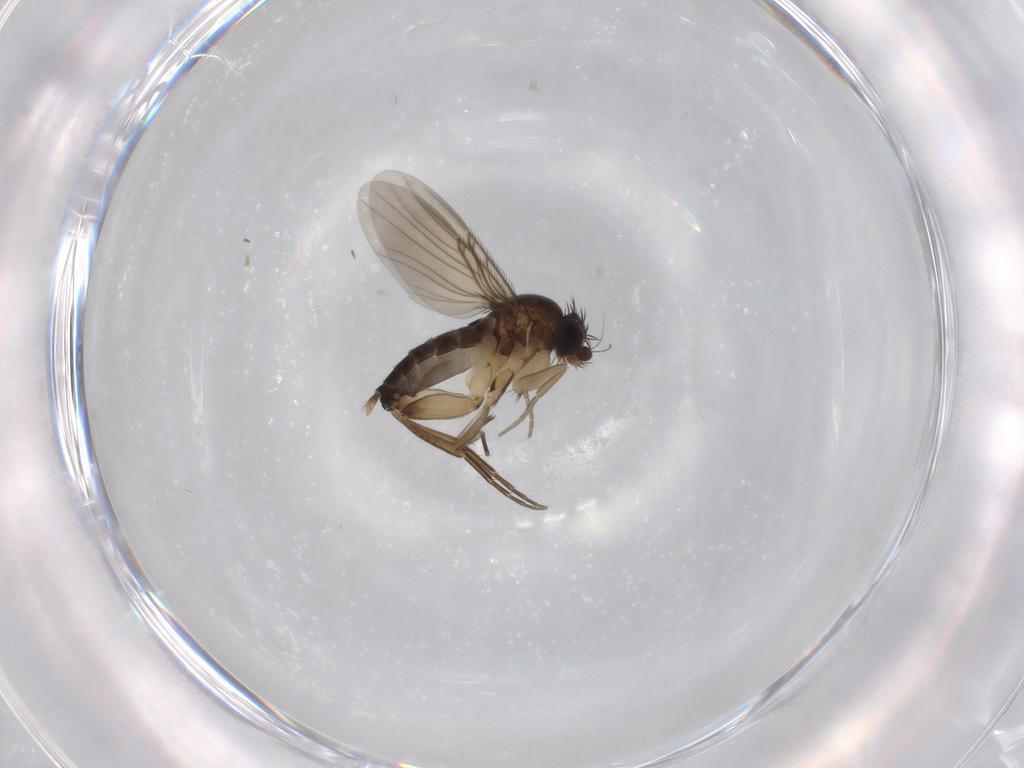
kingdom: Animalia
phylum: Arthropoda
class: Insecta
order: Diptera
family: Phoridae
